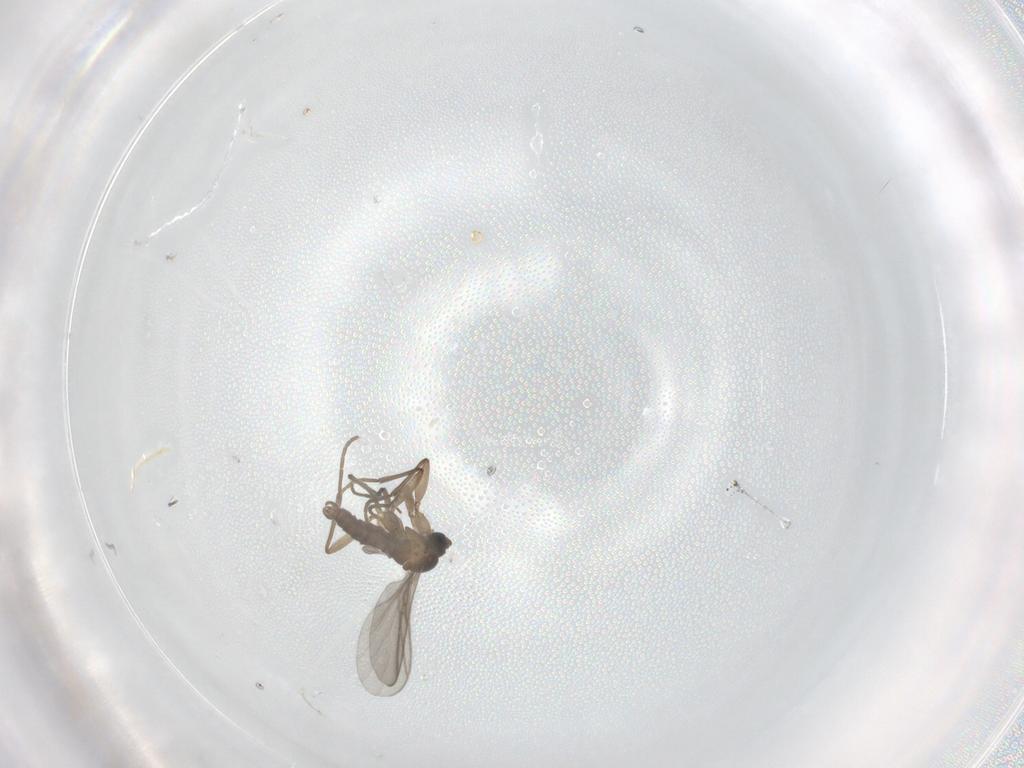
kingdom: Animalia
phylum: Arthropoda
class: Insecta
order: Diptera
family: Sciaridae
